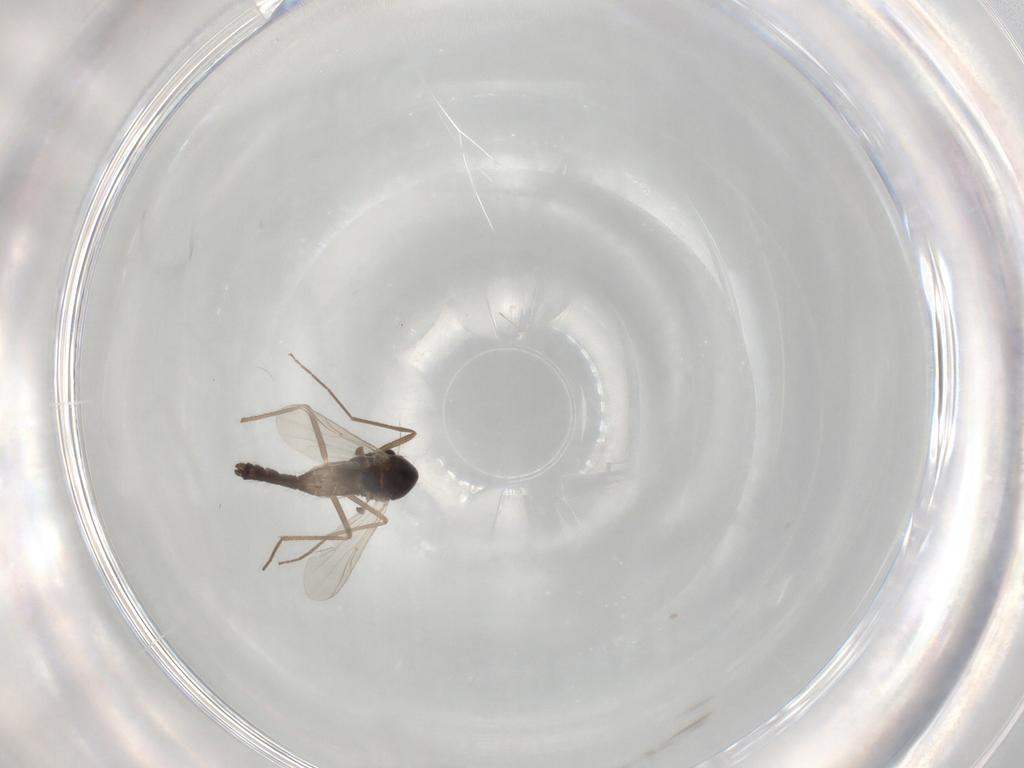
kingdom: Animalia
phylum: Arthropoda
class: Insecta
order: Diptera
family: Chironomidae
